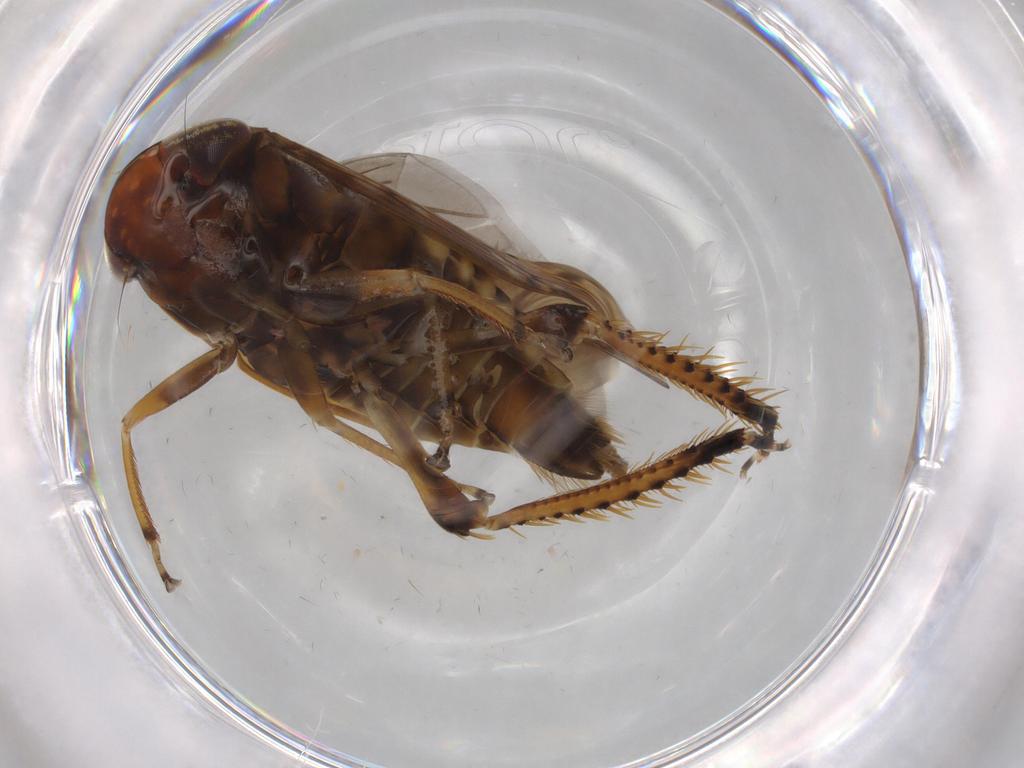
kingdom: Animalia
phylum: Arthropoda
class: Insecta
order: Hemiptera
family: Cicadellidae
